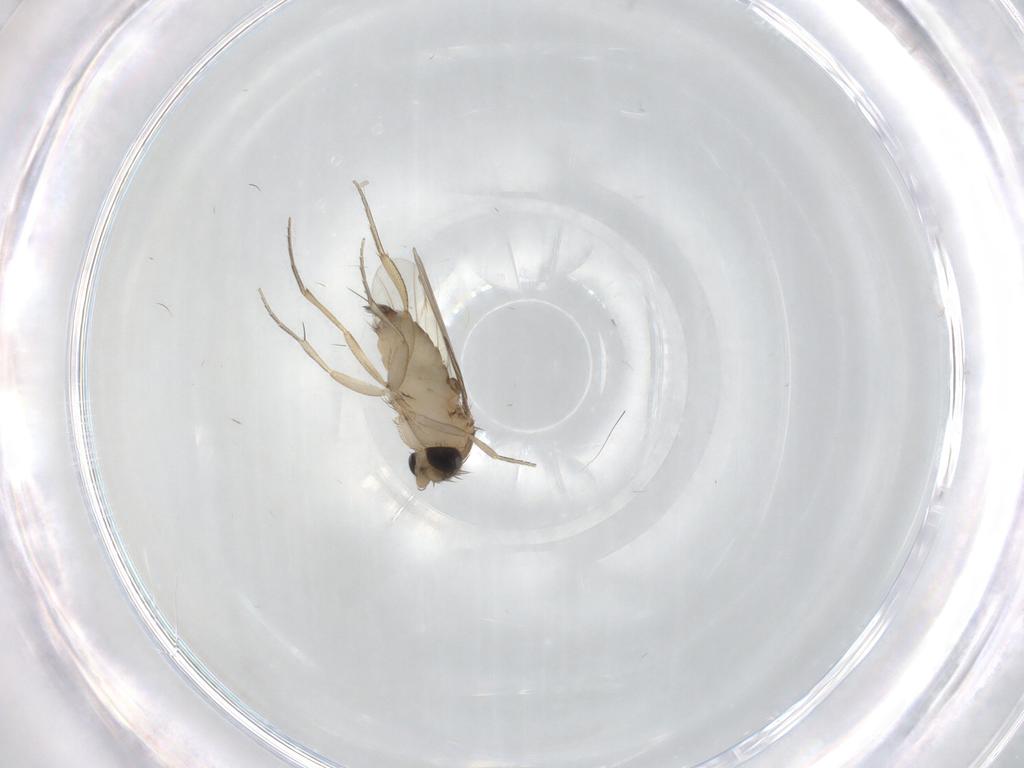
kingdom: Animalia
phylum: Arthropoda
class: Insecta
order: Diptera
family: Phoridae
